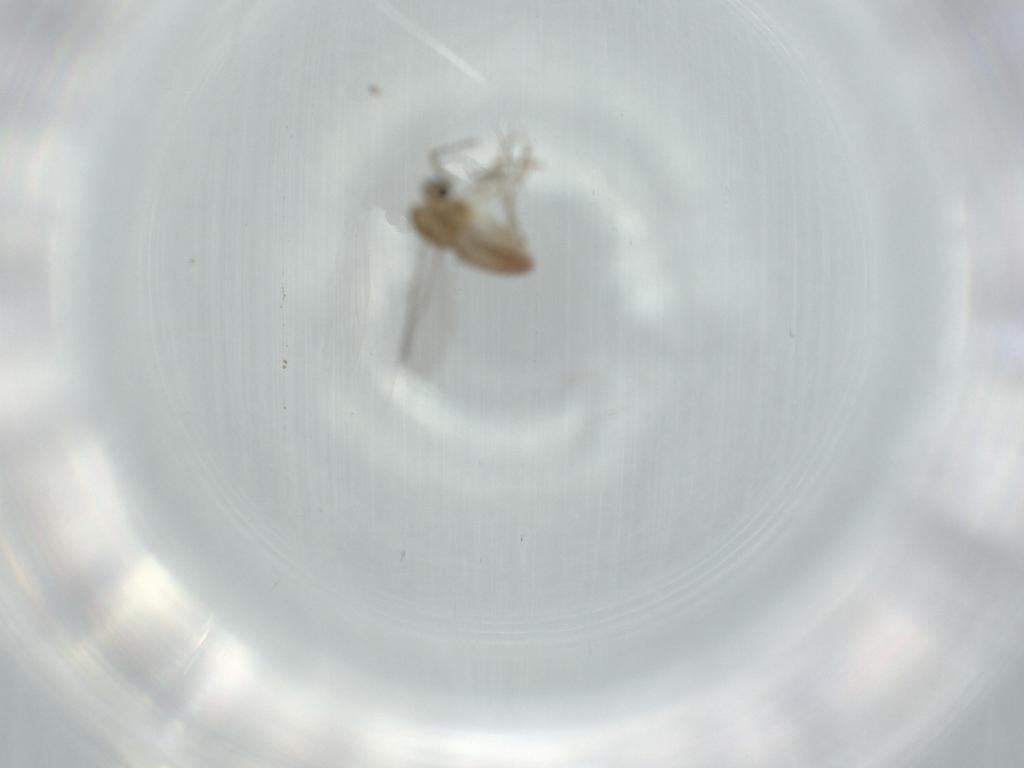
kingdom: Animalia
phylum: Arthropoda
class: Insecta
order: Diptera
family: Chironomidae
